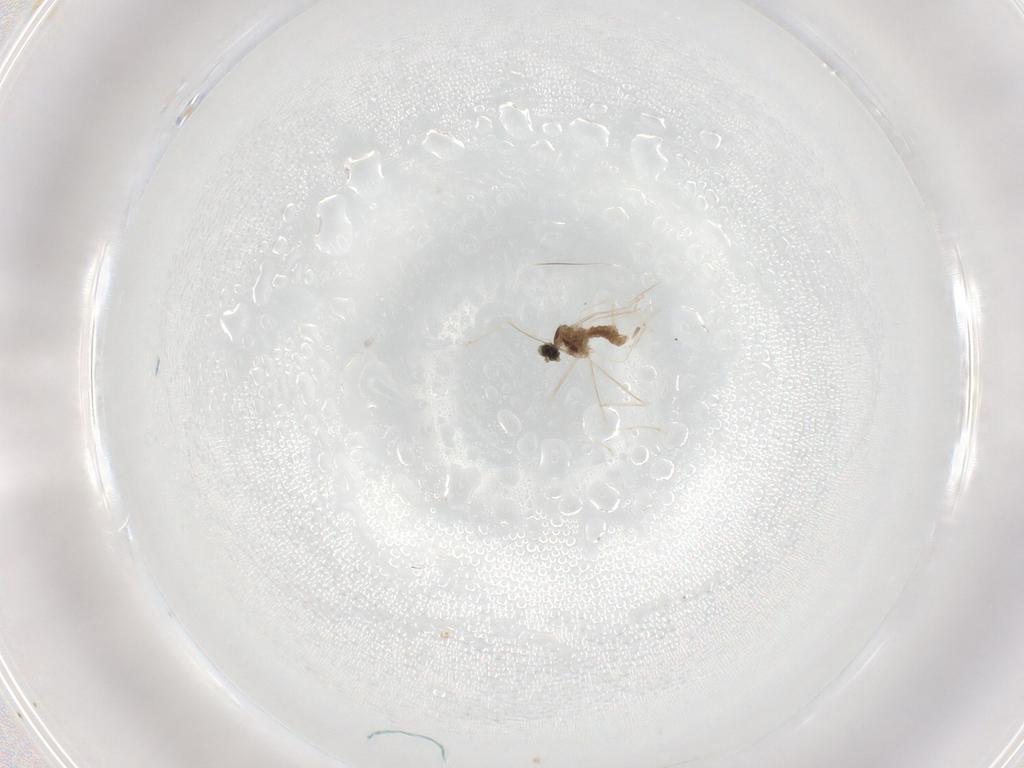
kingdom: Animalia
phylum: Arthropoda
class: Insecta
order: Diptera
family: Cecidomyiidae
